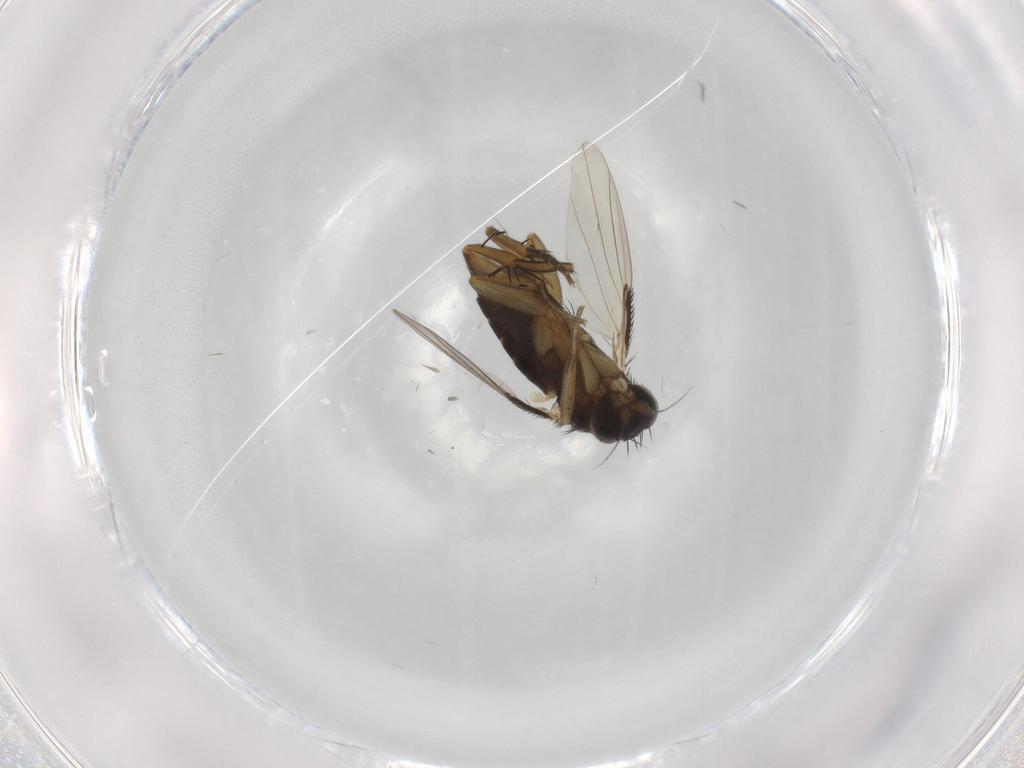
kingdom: Animalia
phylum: Arthropoda
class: Insecta
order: Diptera
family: Phoridae
